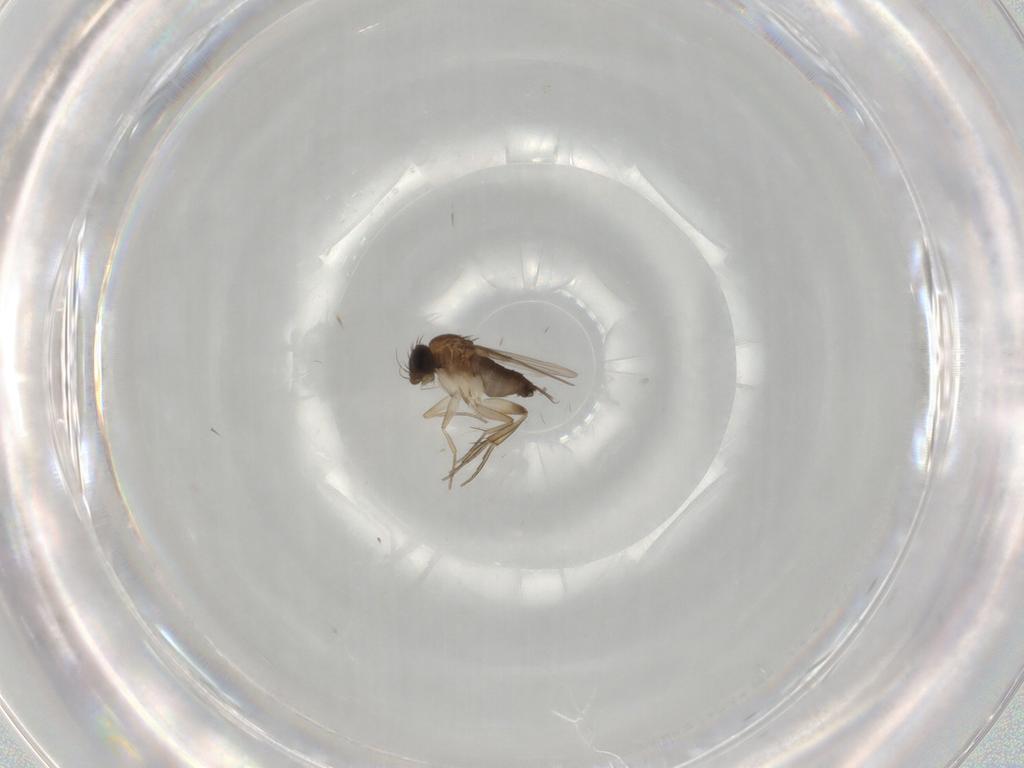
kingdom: Animalia
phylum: Arthropoda
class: Insecta
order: Diptera
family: Phoridae
